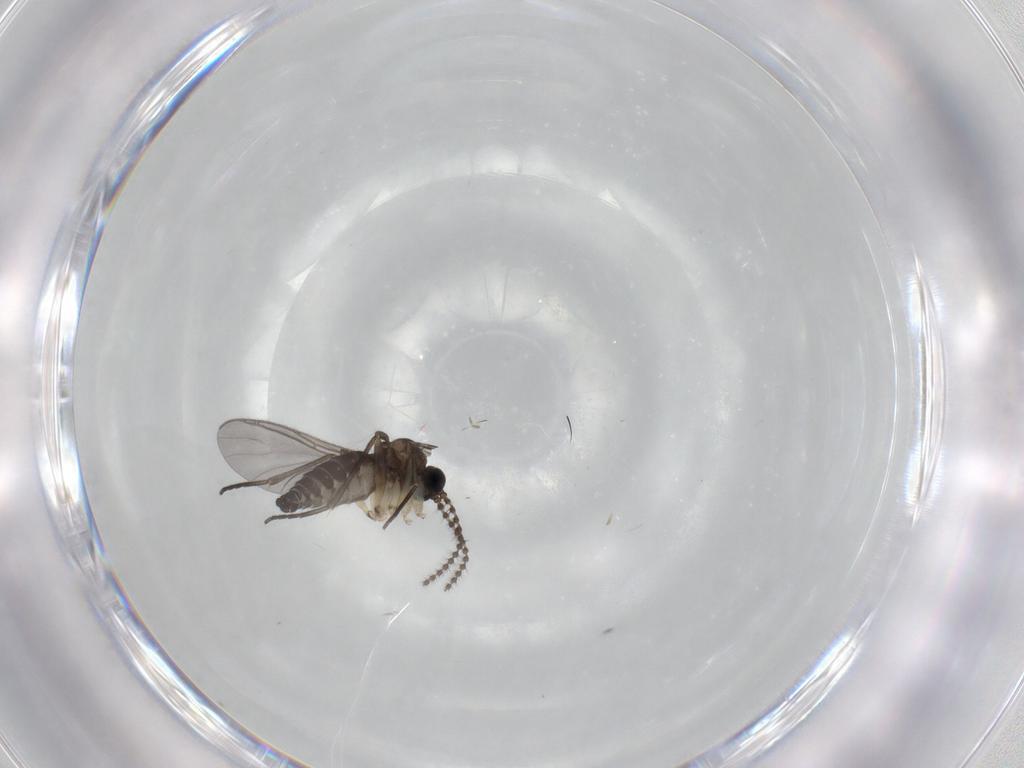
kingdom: Animalia
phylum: Arthropoda
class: Insecta
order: Diptera
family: Sciaridae
